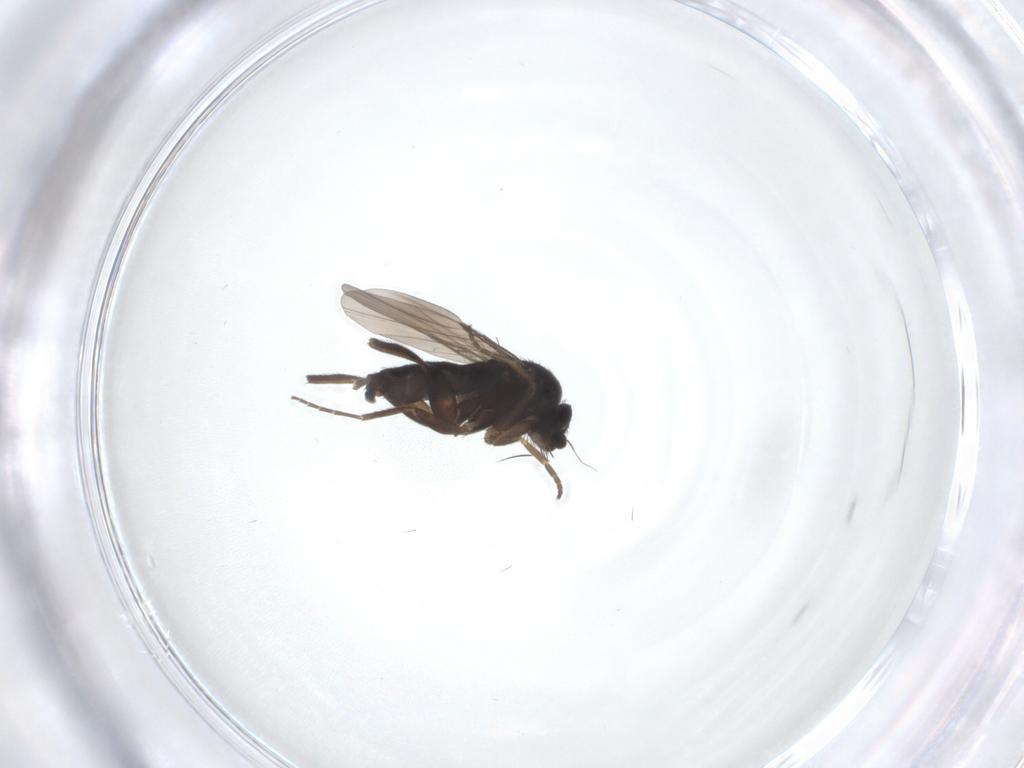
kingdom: Animalia
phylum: Arthropoda
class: Insecta
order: Diptera
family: Phoridae
